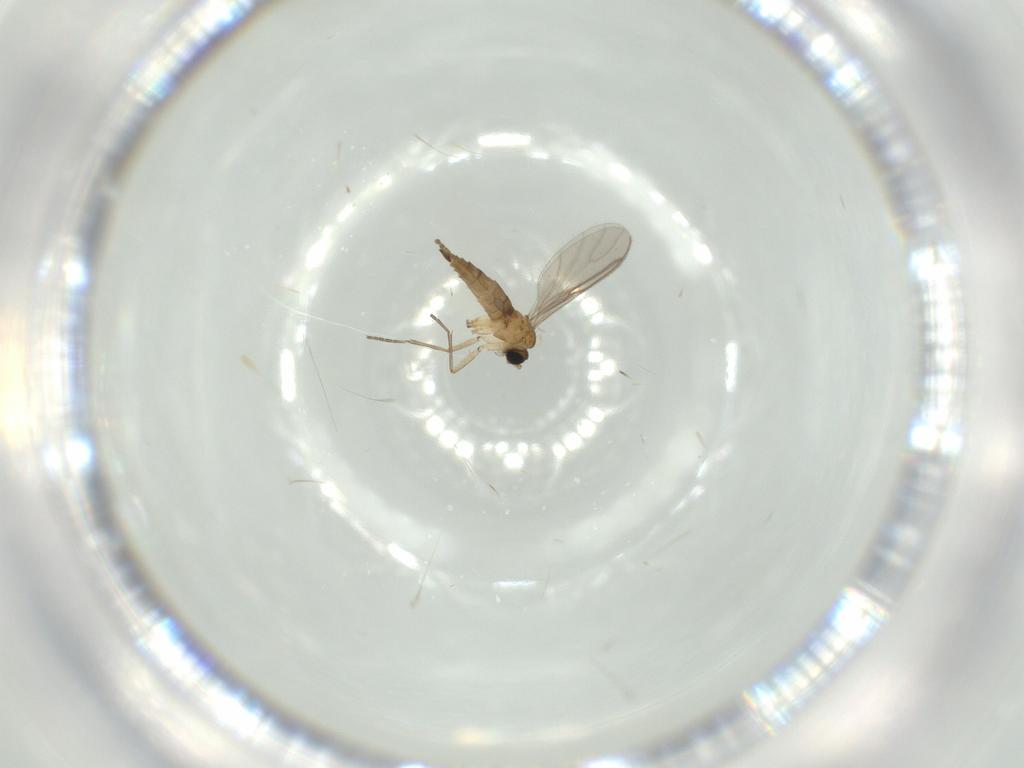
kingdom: Animalia
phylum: Arthropoda
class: Insecta
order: Diptera
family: Sciaridae
